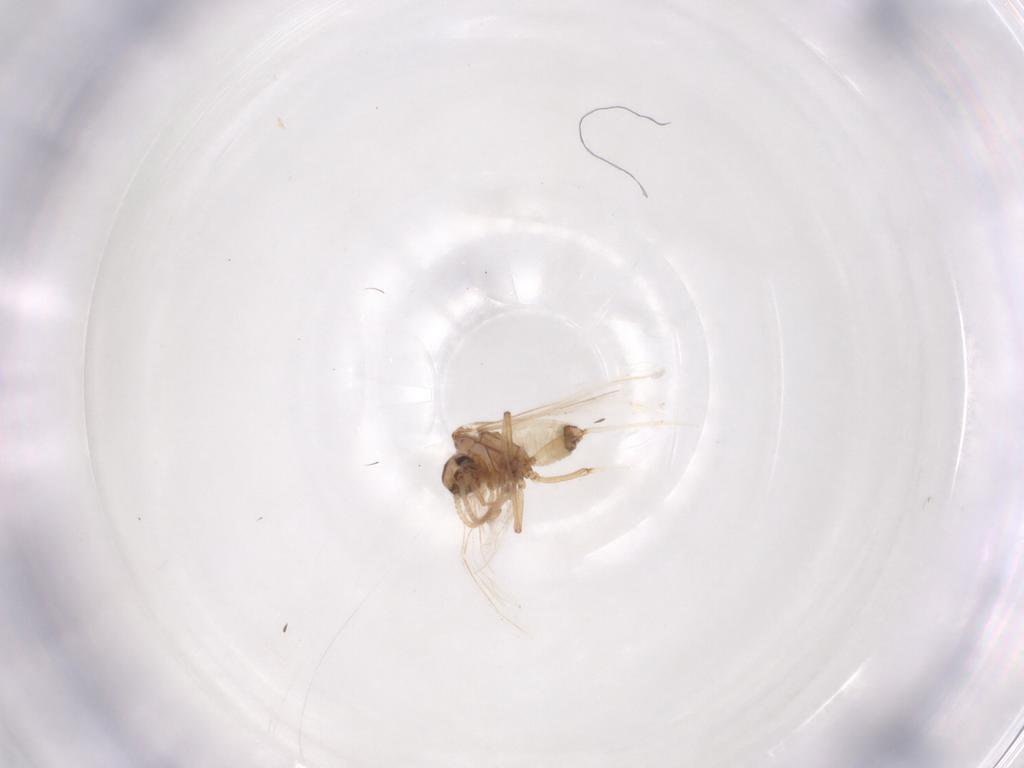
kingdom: Animalia
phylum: Arthropoda
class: Insecta
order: Neuroptera
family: Coniopterygidae
